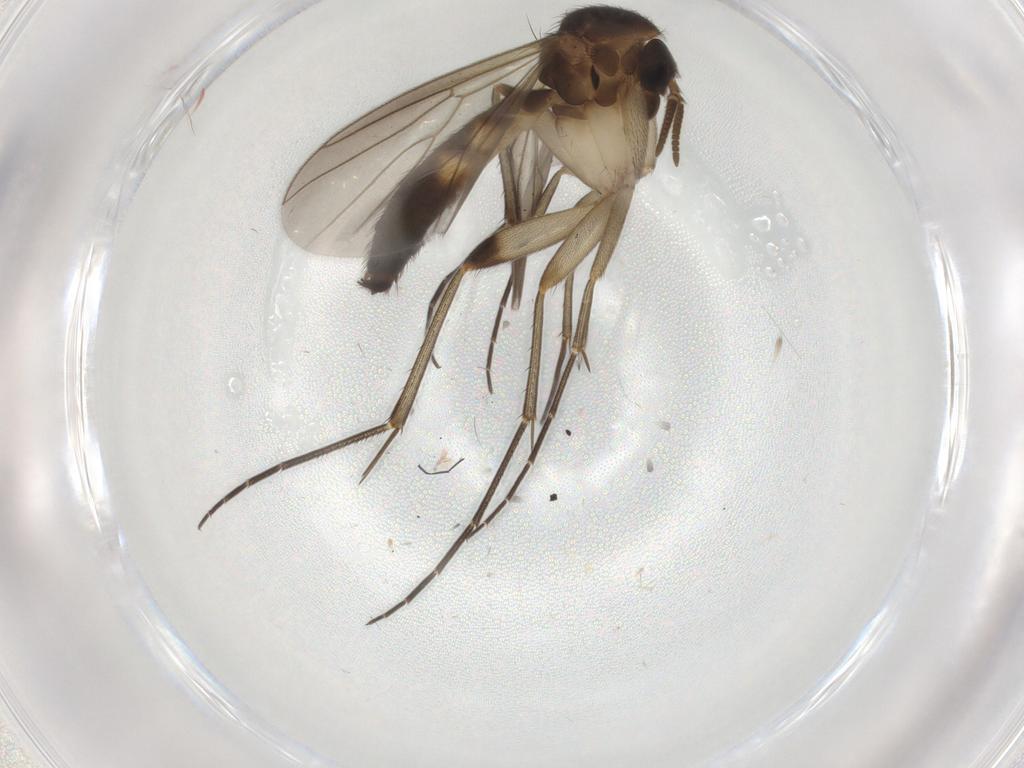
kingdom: Animalia
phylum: Arthropoda
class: Insecta
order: Diptera
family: Mycetophilidae
